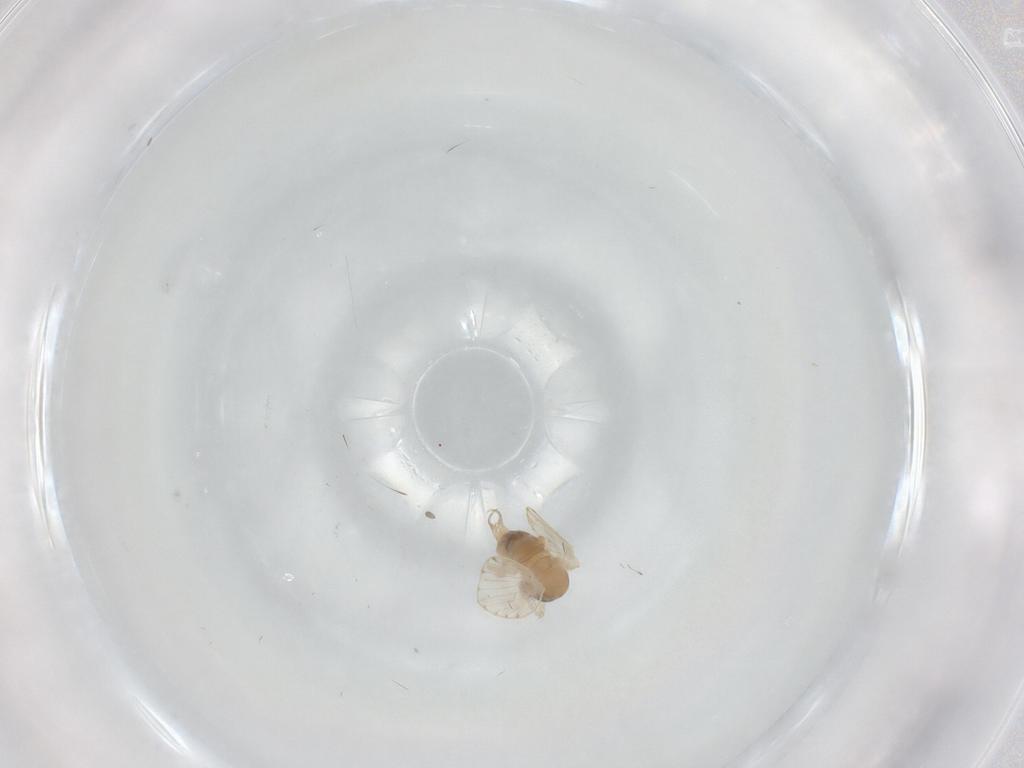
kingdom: Animalia
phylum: Arthropoda
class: Insecta
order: Diptera
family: Psychodidae
